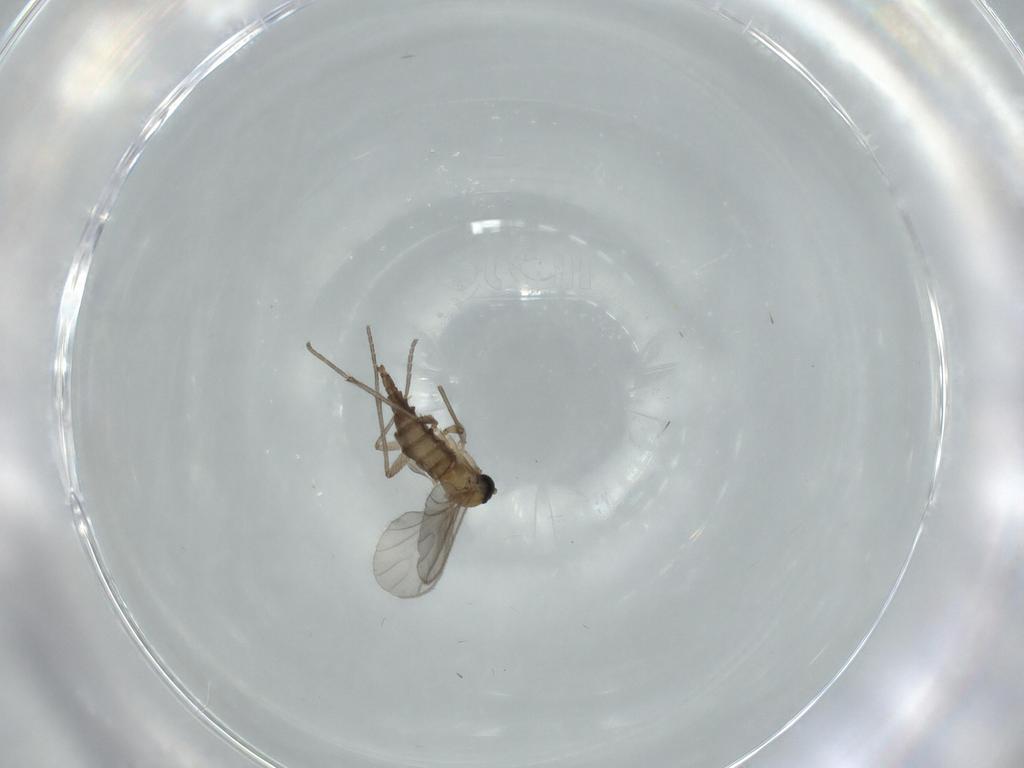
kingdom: Animalia
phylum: Arthropoda
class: Insecta
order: Diptera
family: Sciaridae
